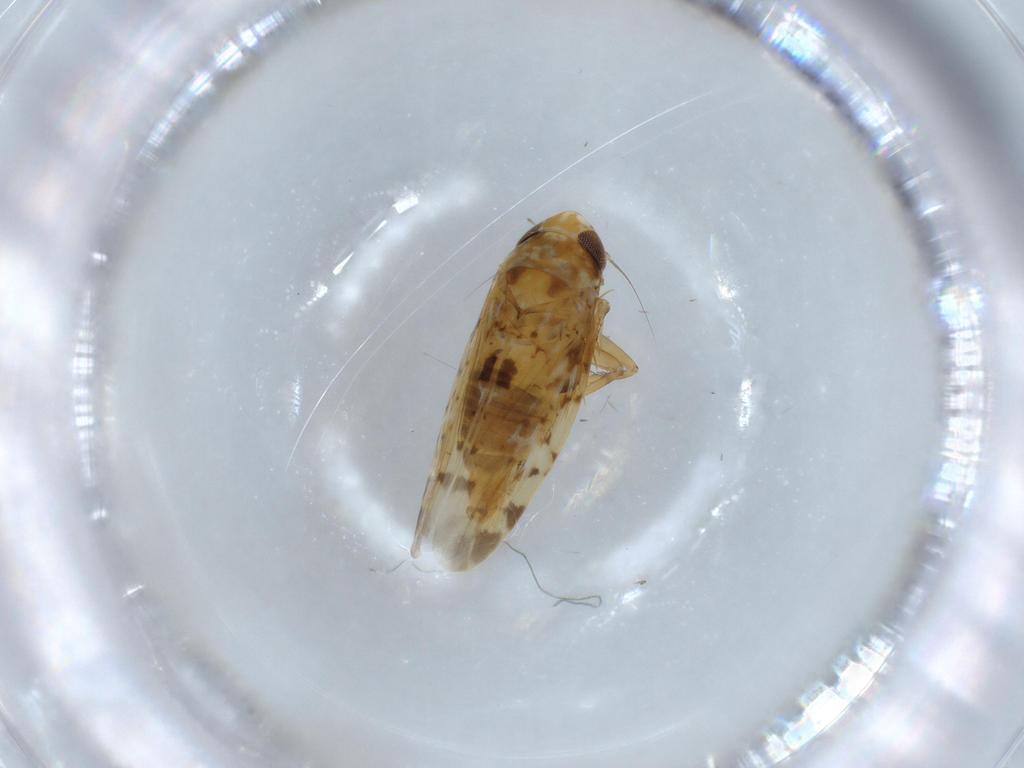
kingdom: Animalia
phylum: Arthropoda
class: Insecta
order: Hemiptera
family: Cicadellidae
